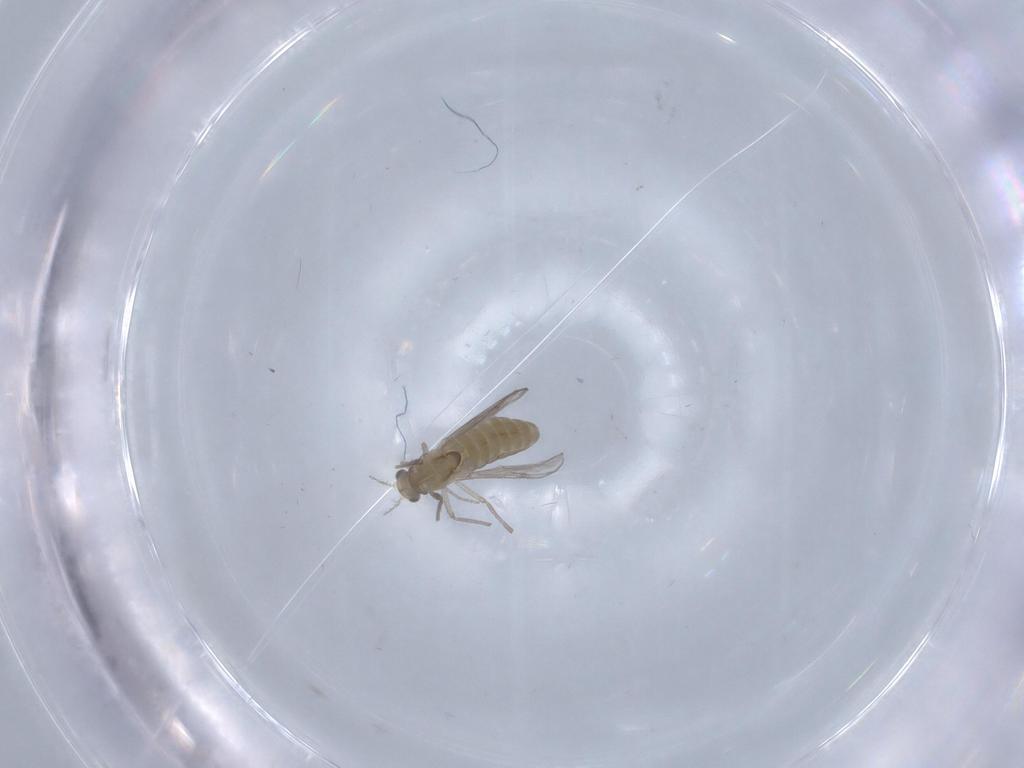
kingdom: Animalia
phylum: Arthropoda
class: Insecta
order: Diptera
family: Chironomidae
